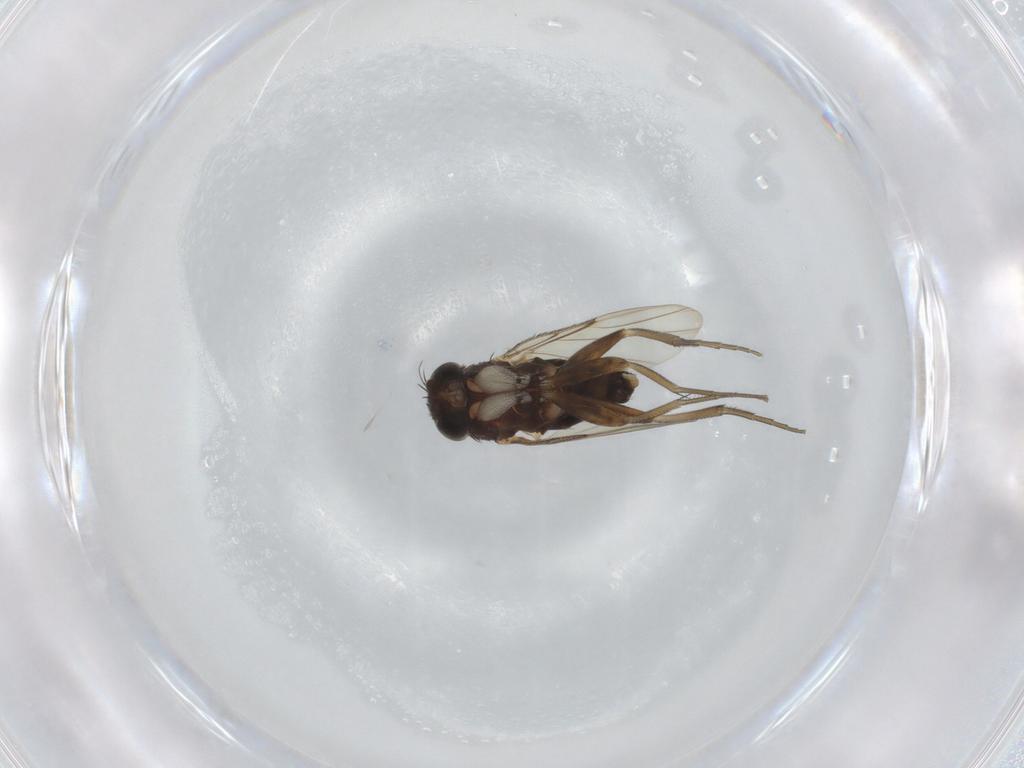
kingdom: Animalia
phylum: Arthropoda
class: Insecta
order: Diptera
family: Phoridae
